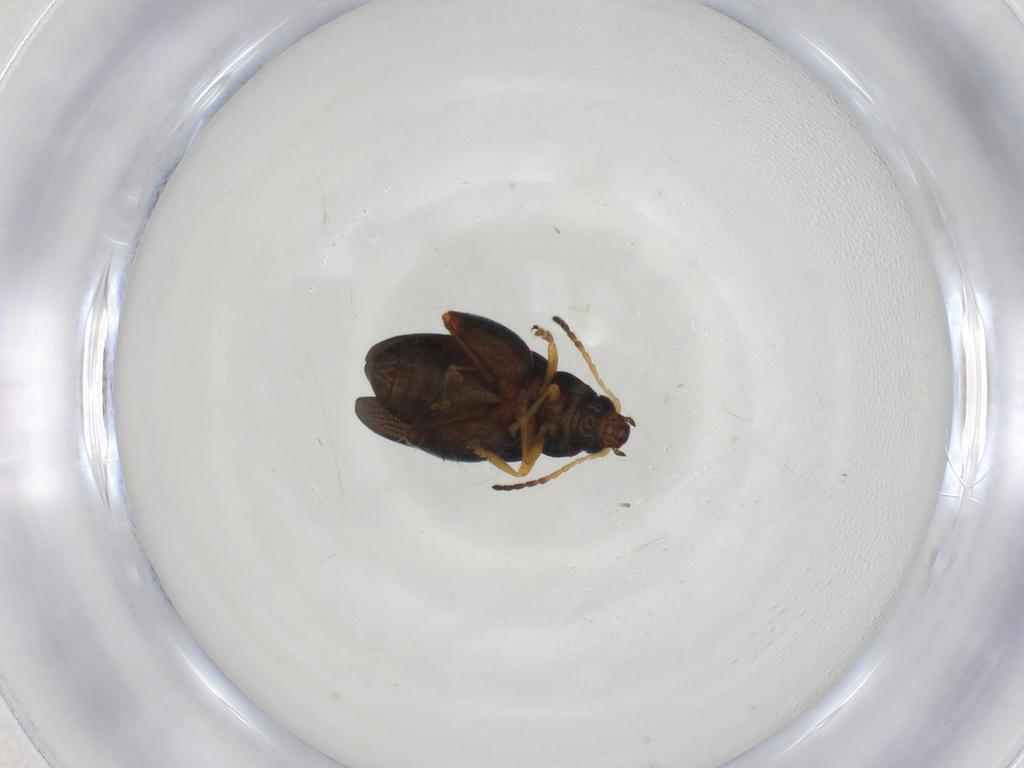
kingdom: Animalia
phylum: Arthropoda
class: Insecta
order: Coleoptera
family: Chrysomelidae
